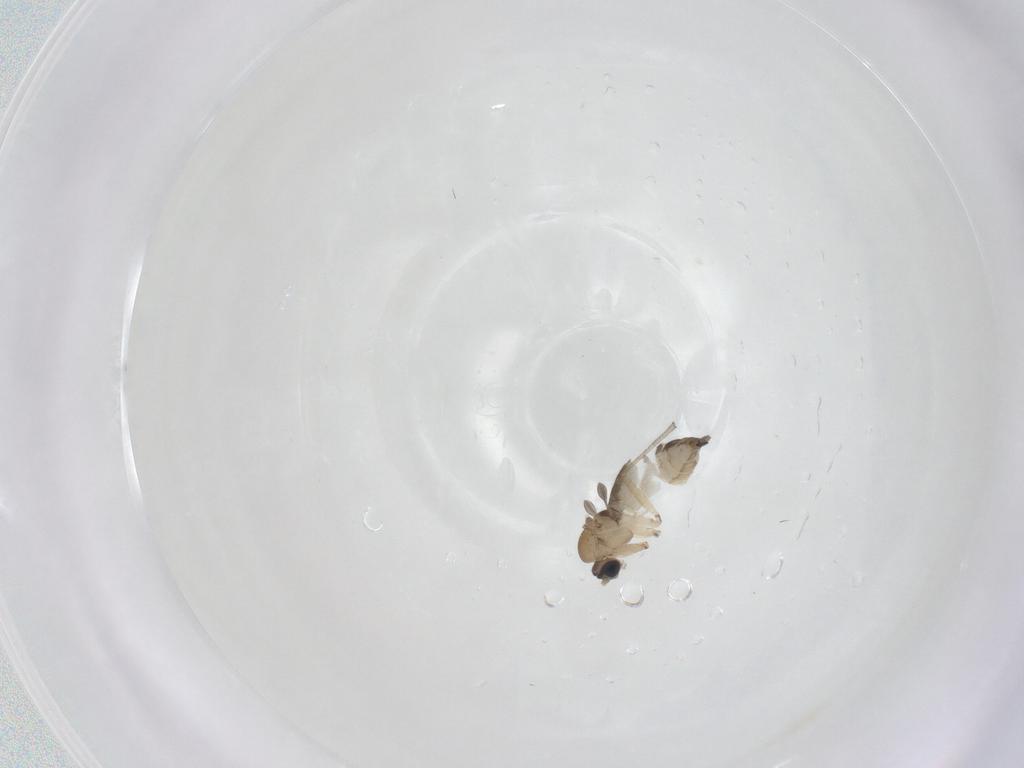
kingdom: Animalia
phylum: Arthropoda
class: Insecta
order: Diptera
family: Sciaridae
